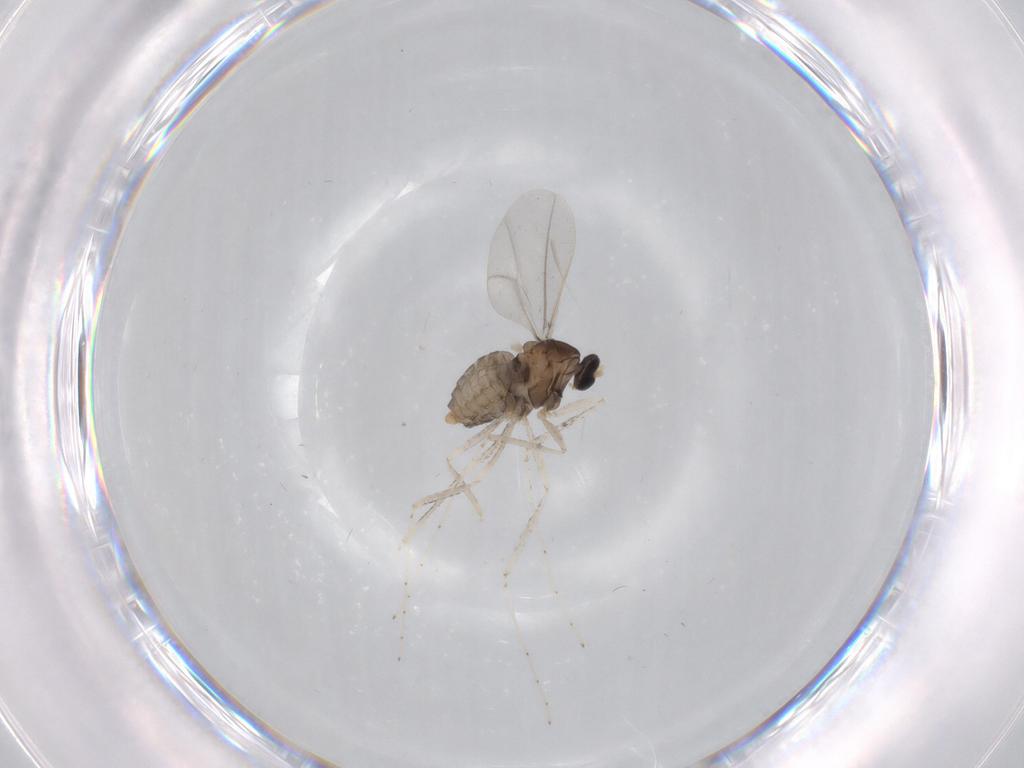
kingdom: Animalia
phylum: Arthropoda
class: Insecta
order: Diptera
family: Cecidomyiidae
